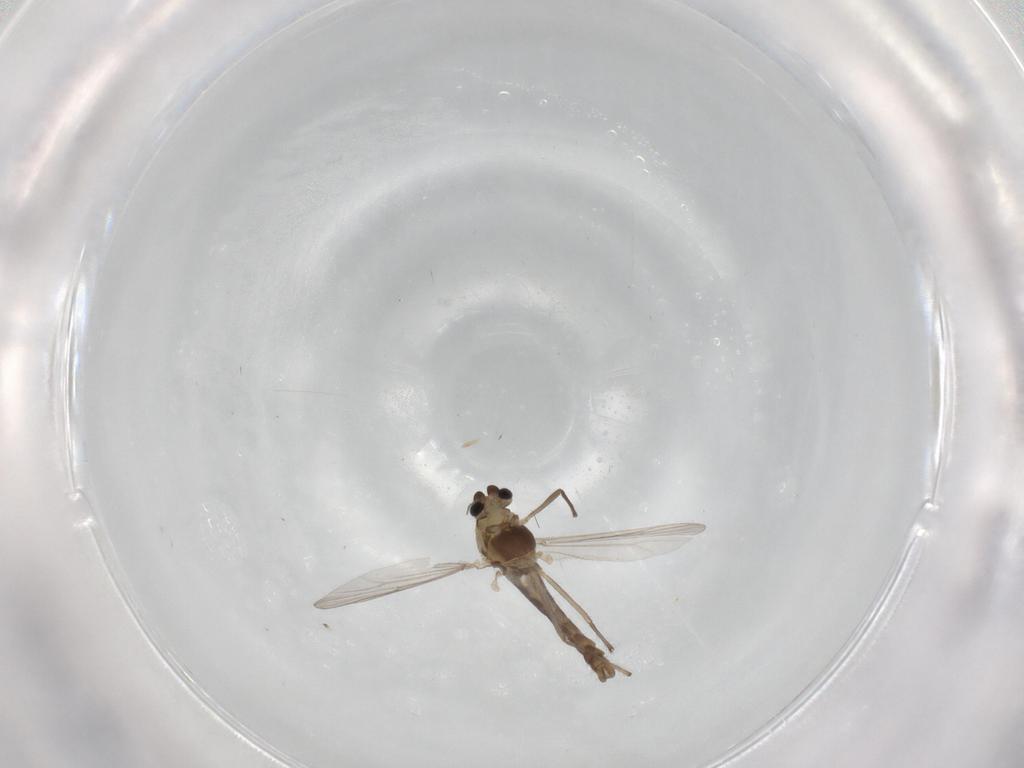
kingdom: Animalia
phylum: Arthropoda
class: Insecta
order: Diptera
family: Chironomidae
